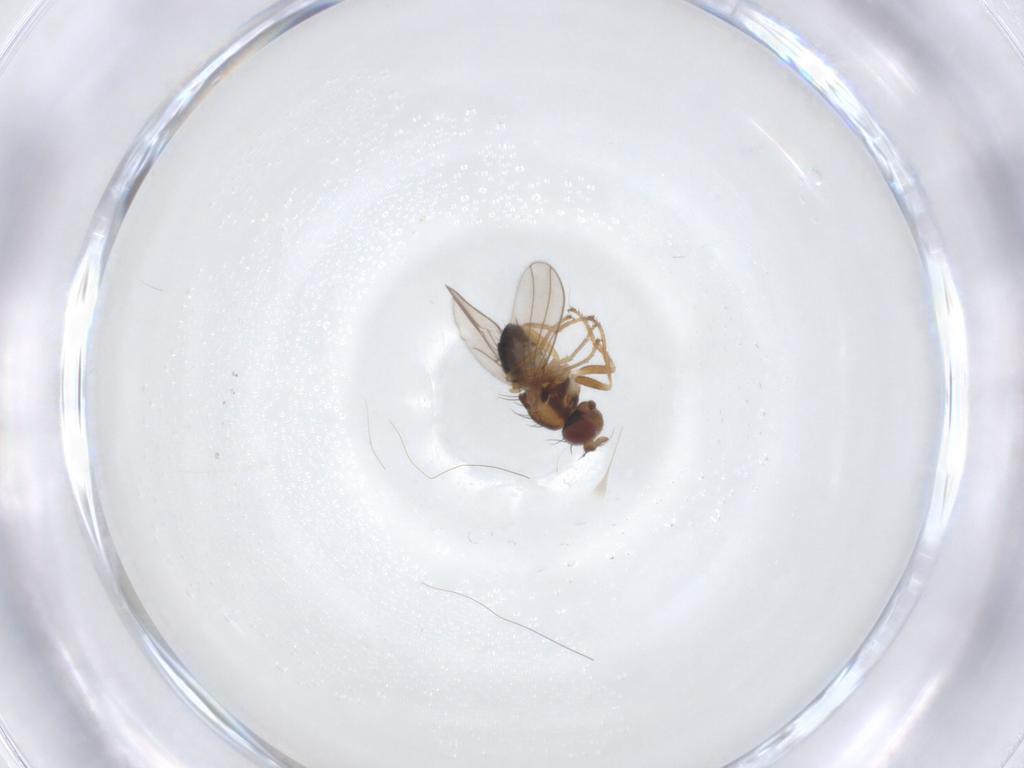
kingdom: Animalia
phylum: Arthropoda
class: Insecta
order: Diptera
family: Ephydridae
